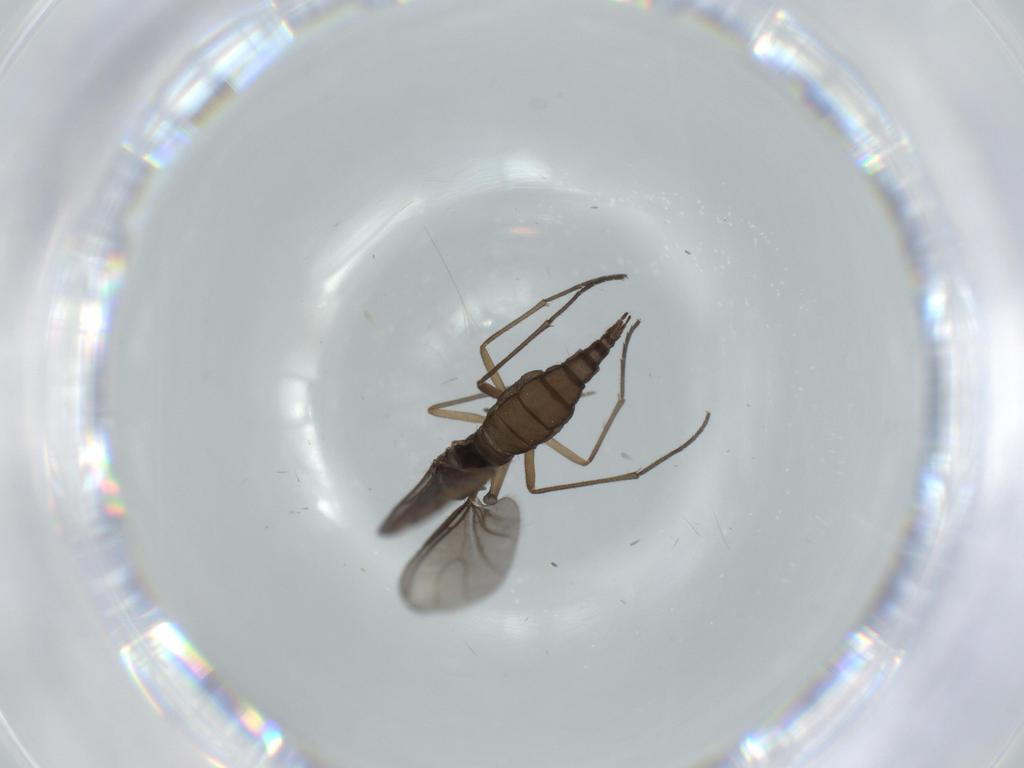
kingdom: Animalia
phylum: Arthropoda
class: Insecta
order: Diptera
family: Sciaridae
